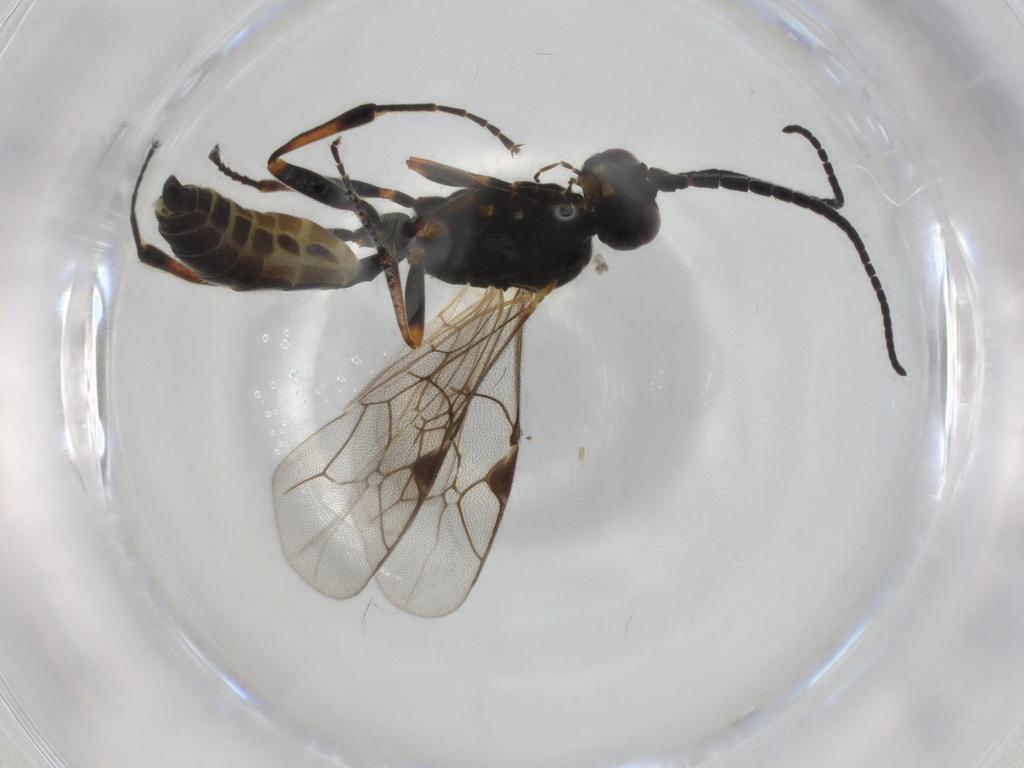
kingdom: Animalia
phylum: Arthropoda
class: Insecta
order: Hymenoptera
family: Ichneumonidae
